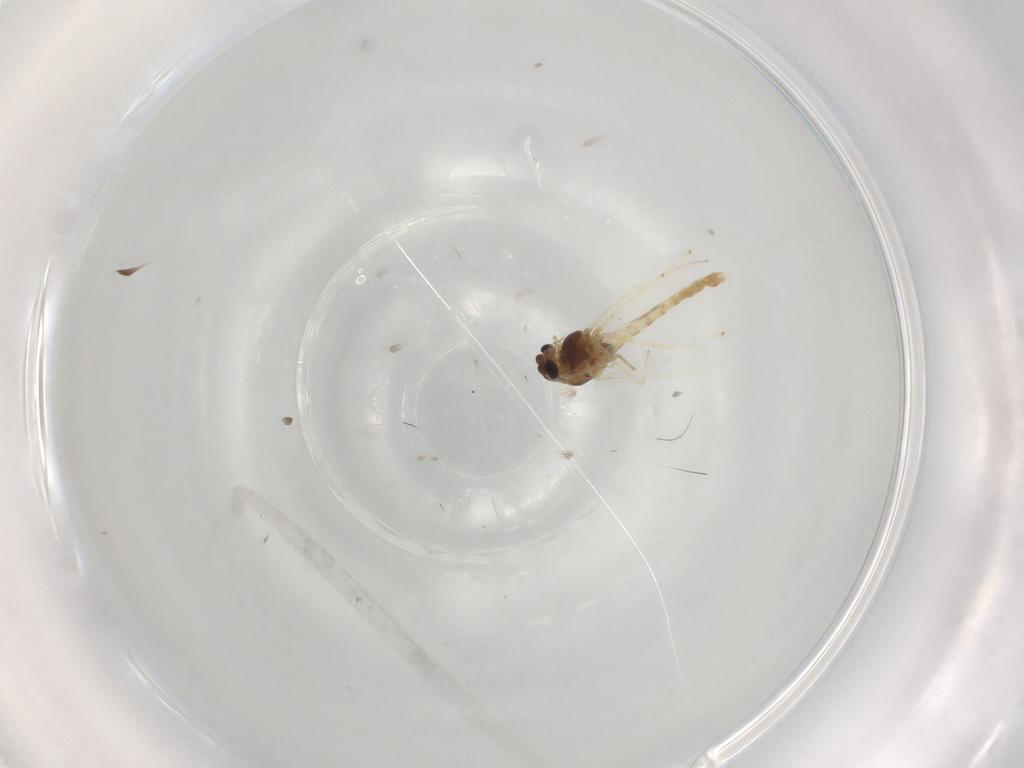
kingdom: Animalia
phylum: Arthropoda
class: Insecta
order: Diptera
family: Chironomidae
